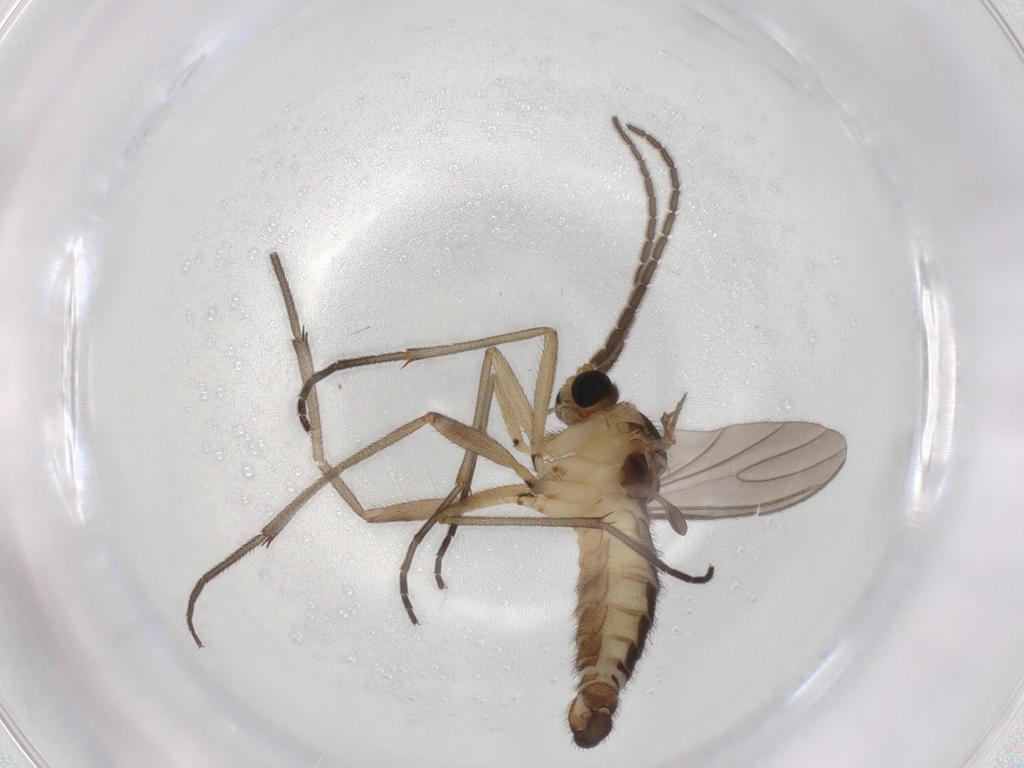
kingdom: Animalia
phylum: Arthropoda
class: Insecta
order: Diptera
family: Sciaridae
